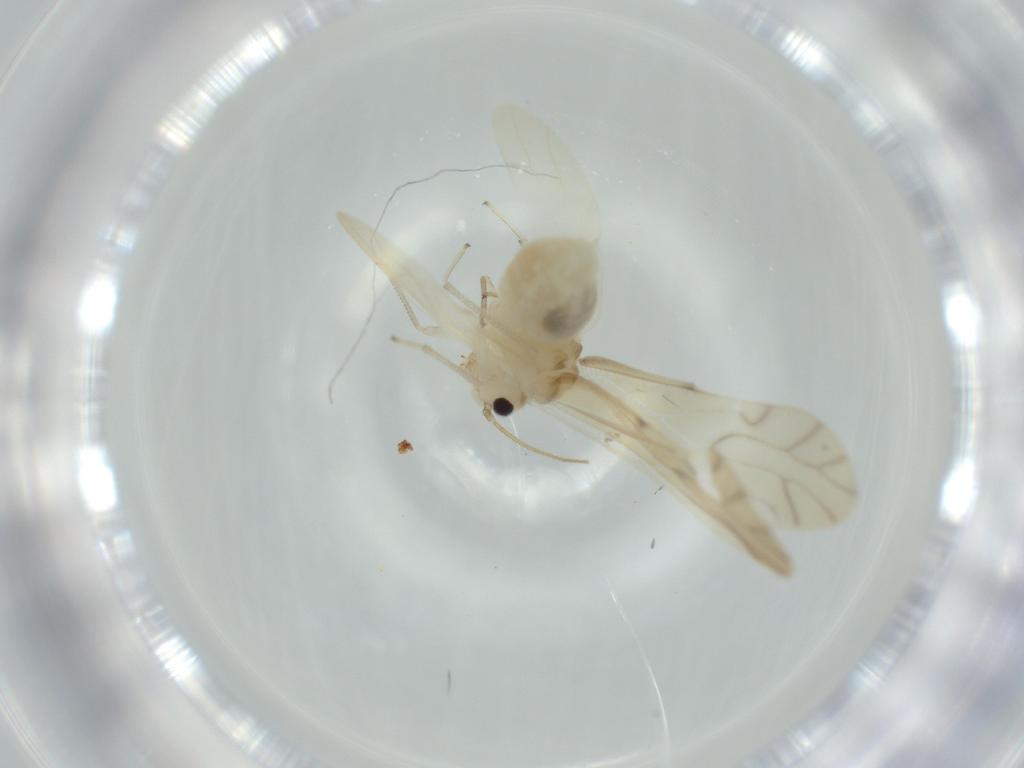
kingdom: Animalia
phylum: Arthropoda
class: Insecta
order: Psocodea
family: Caeciliusidae
